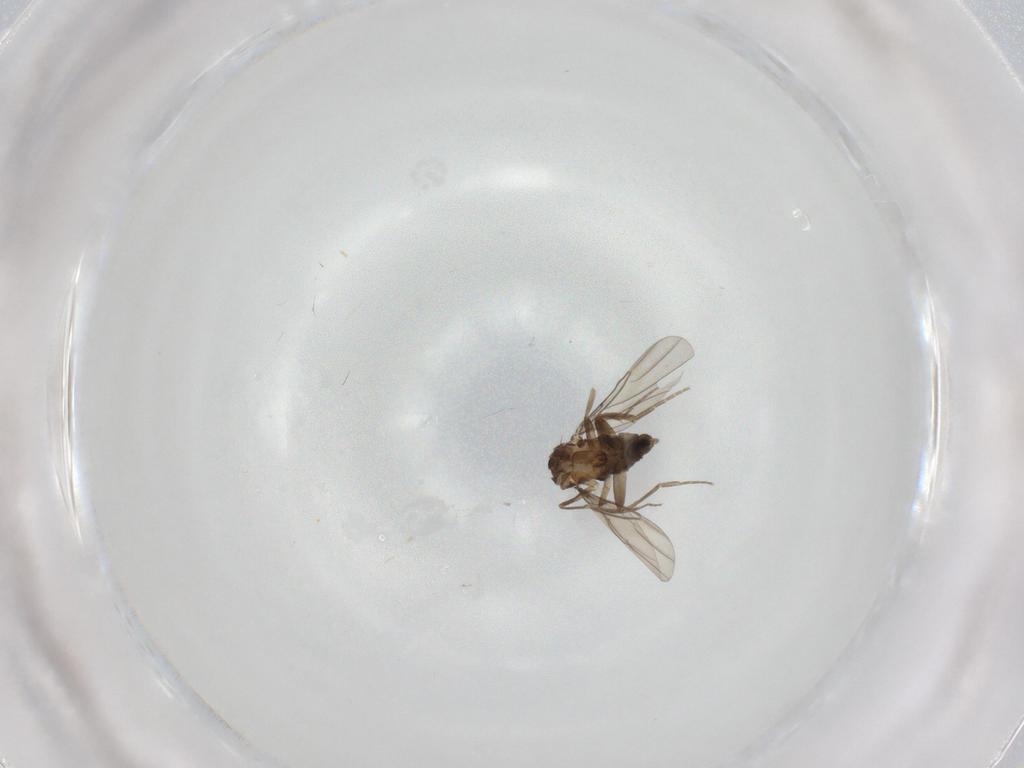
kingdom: Animalia
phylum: Arthropoda
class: Insecta
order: Diptera
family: Phoridae
